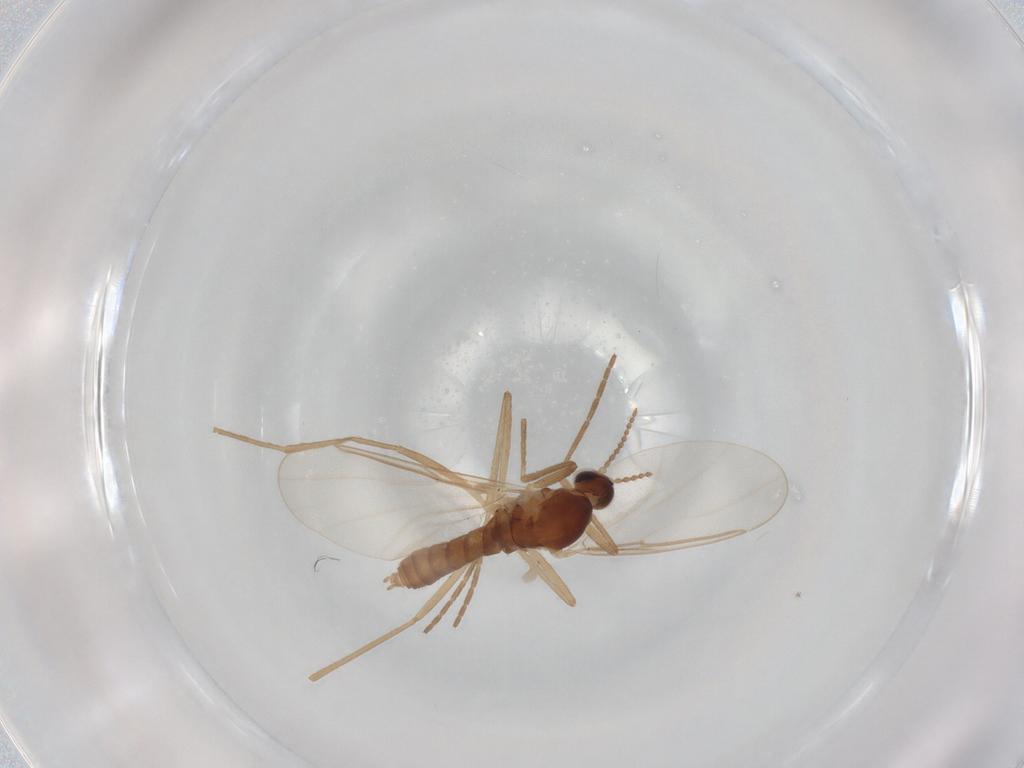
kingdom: Animalia
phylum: Arthropoda
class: Insecta
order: Diptera
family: Cecidomyiidae
